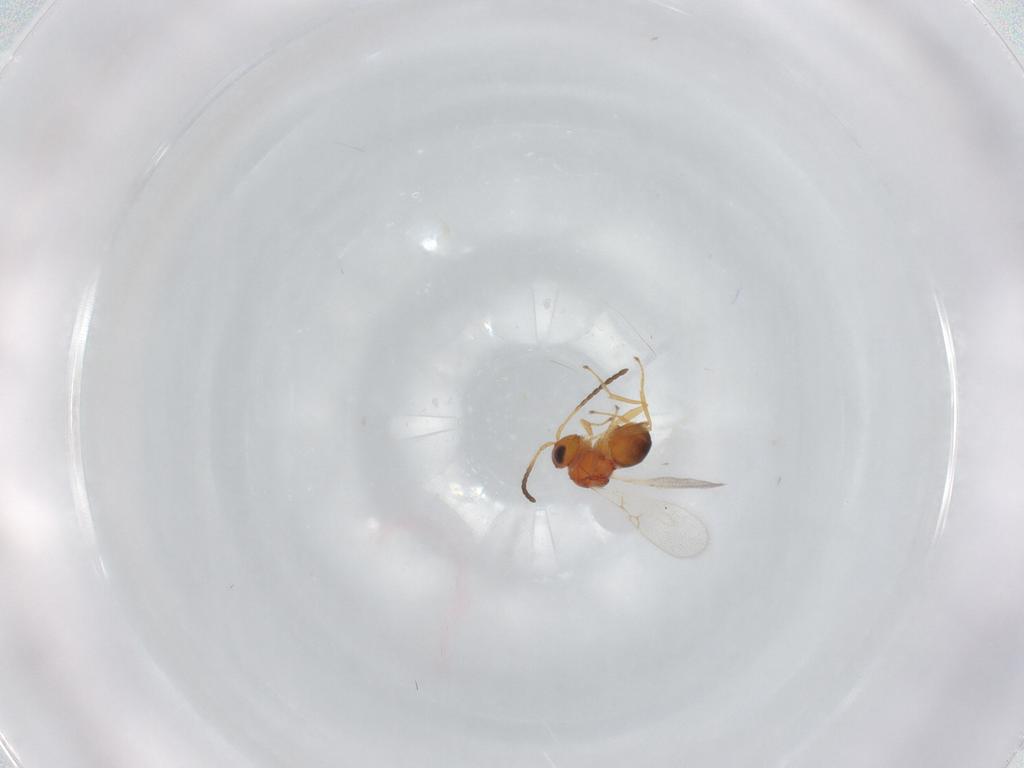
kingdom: Animalia
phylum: Arthropoda
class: Insecta
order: Hymenoptera
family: Figitidae
